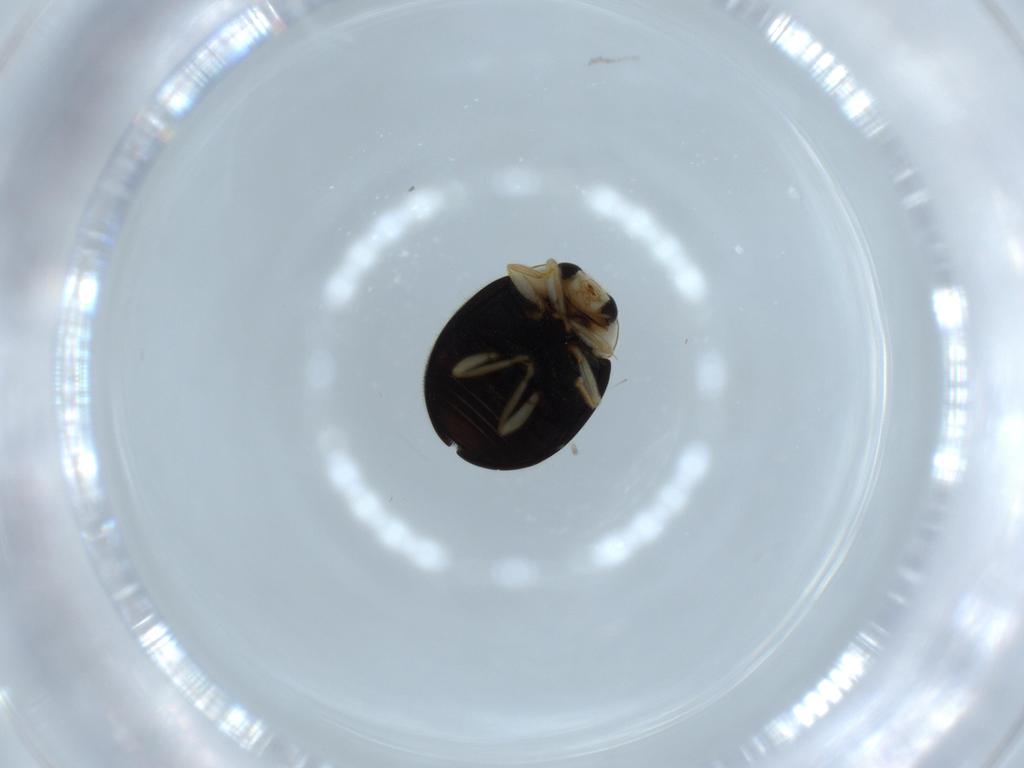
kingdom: Animalia
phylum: Arthropoda
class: Insecta
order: Coleoptera
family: Coccinellidae
